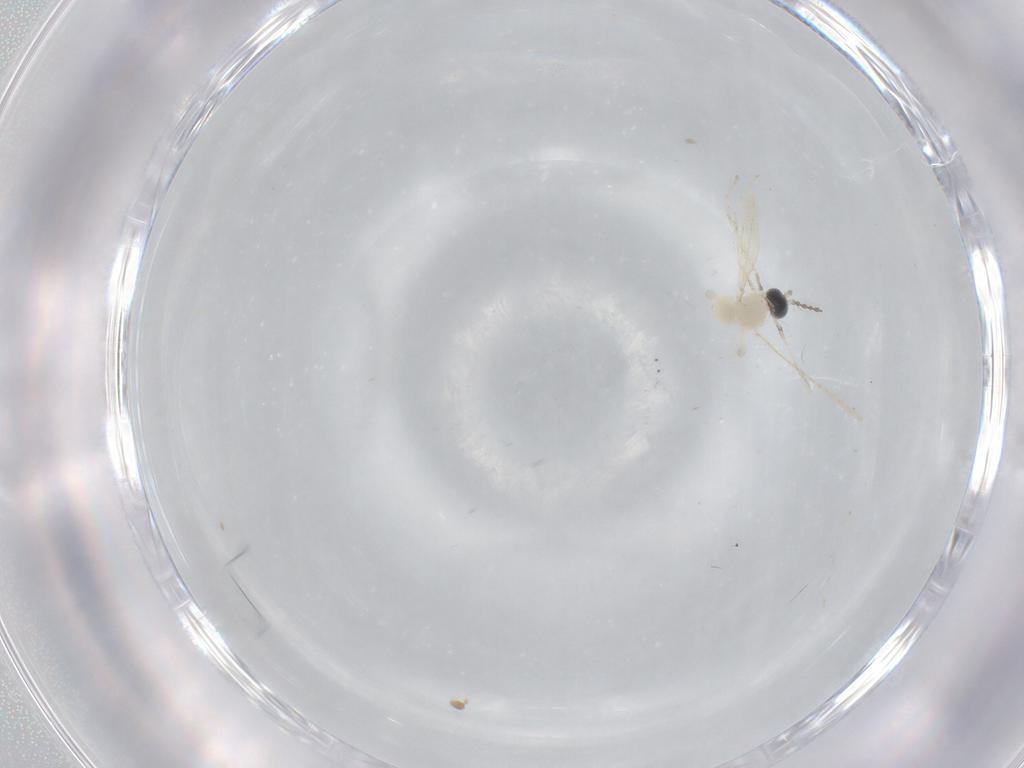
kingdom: Animalia
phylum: Arthropoda
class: Insecta
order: Diptera
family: Cecidomyiidae
